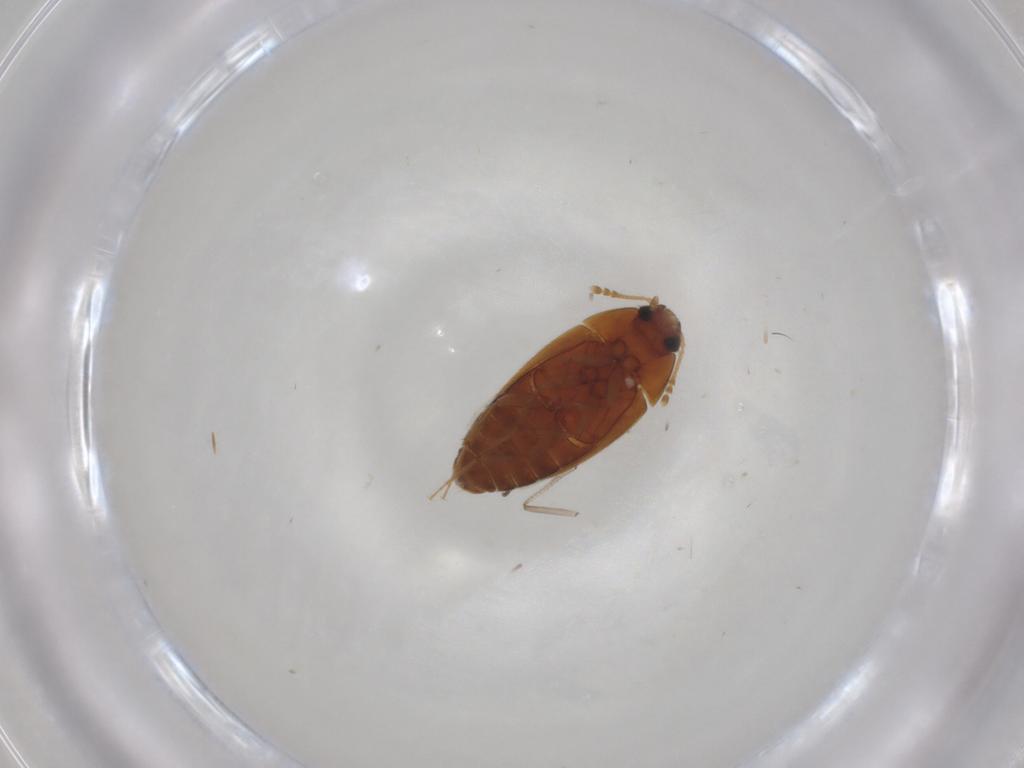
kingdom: Animalia
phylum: Arthropoda
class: Insecta
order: Coleoptera
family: Mycetophagidae
